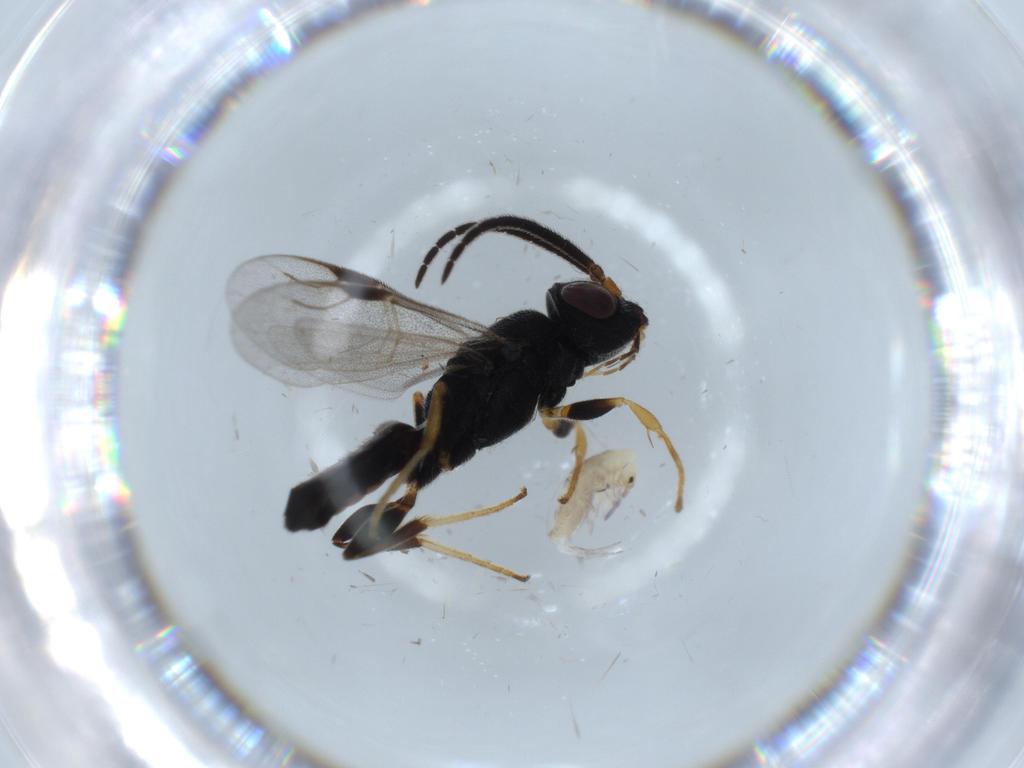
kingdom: Animalia
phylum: Arthropoda
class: Insecta
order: Hymenoptera
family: Dryinidae
